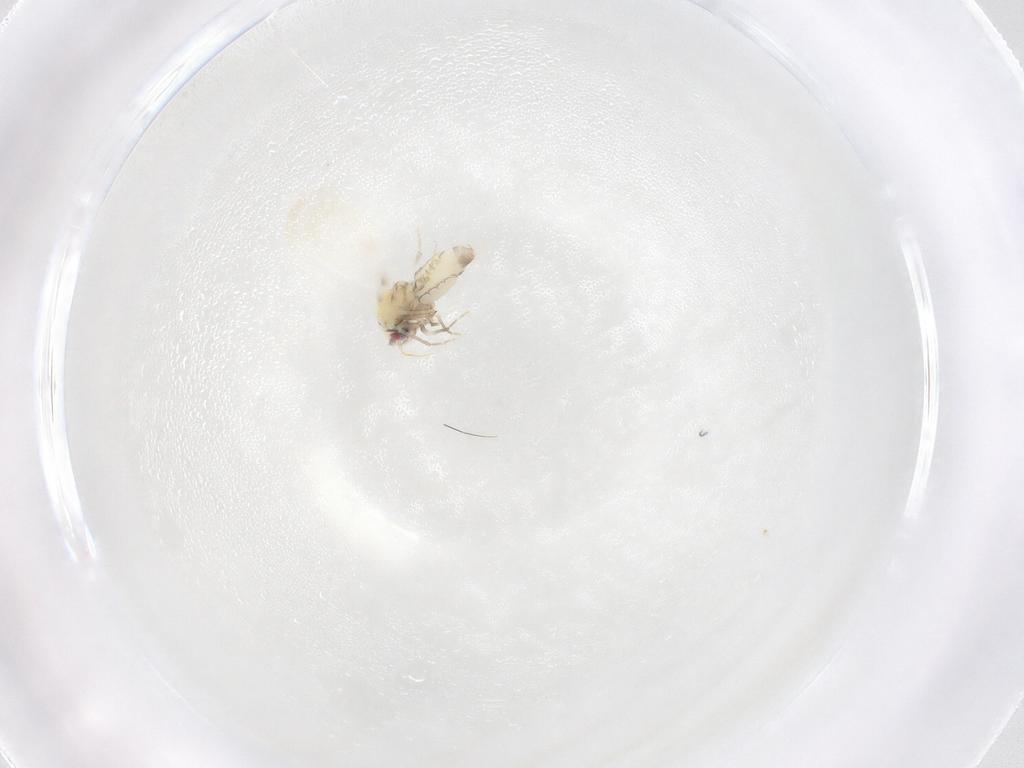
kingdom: Animalia
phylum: Arthropoda
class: Insecta
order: Hemiptera
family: Aleyrodidae
